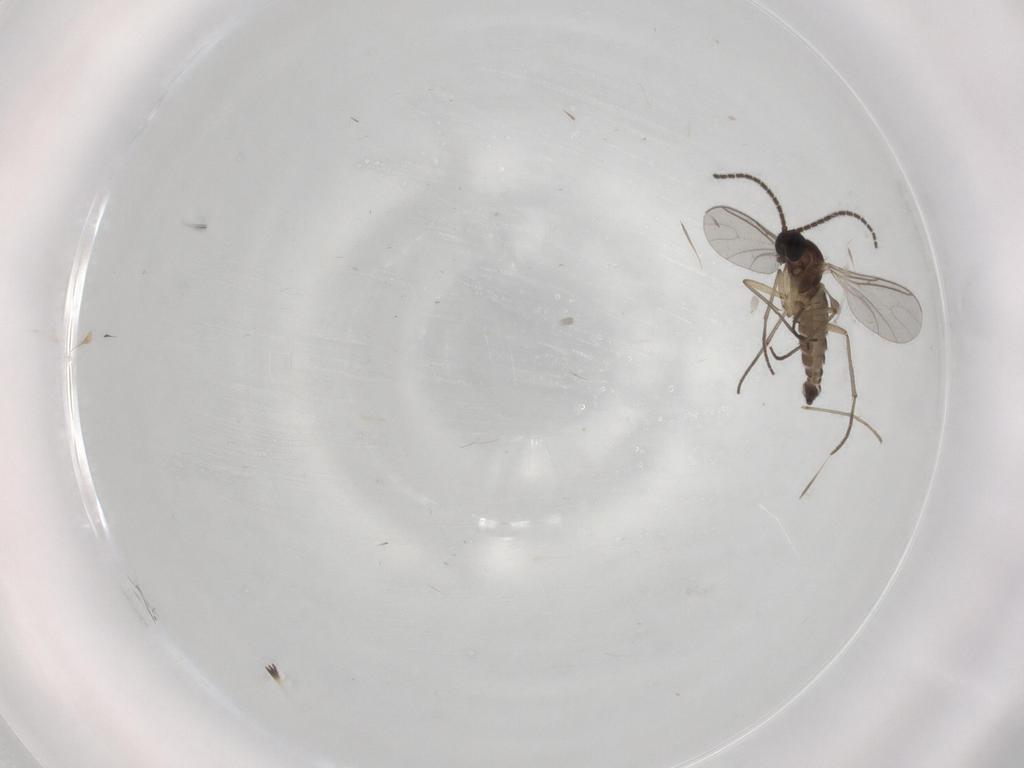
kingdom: Animalia
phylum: Arthropoda
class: Insecta
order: Diptera
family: Sciaridae
